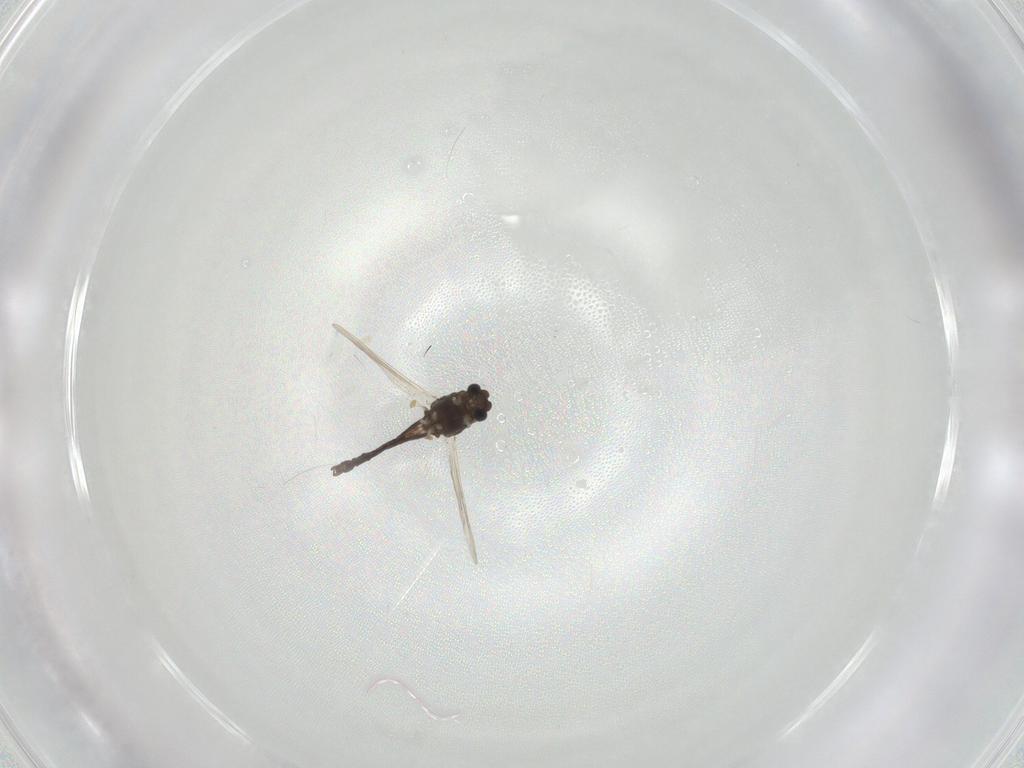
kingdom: Animalia
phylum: Arthropoda
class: Insecta
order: Diptera
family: Chironomidae
